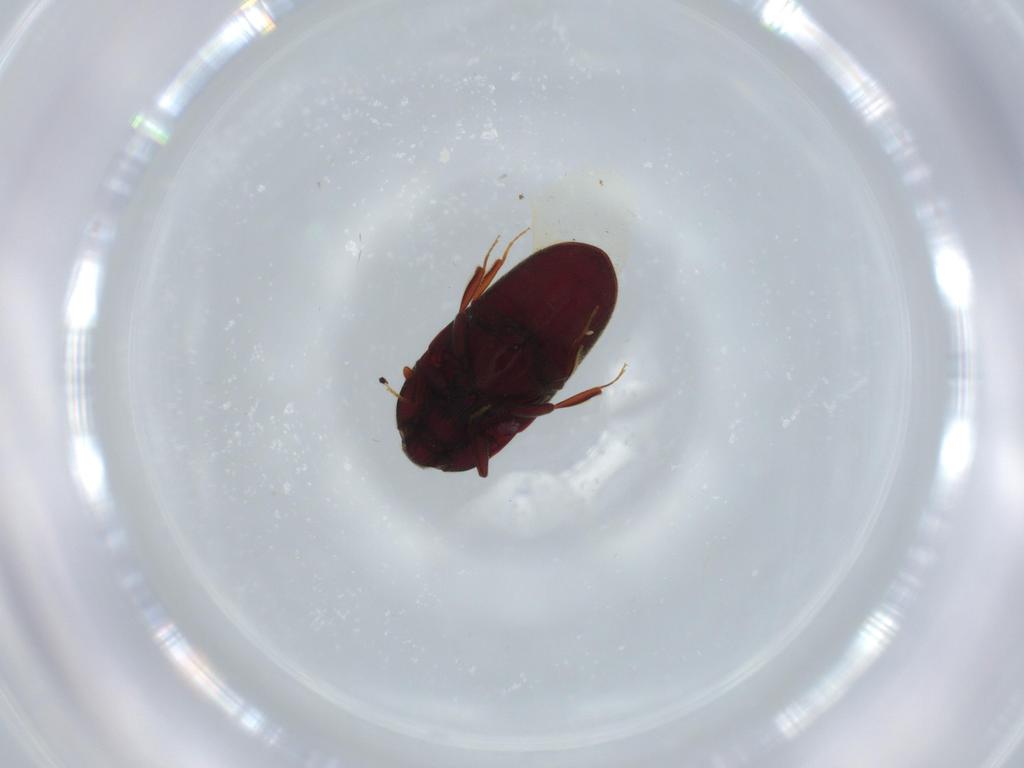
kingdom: Animalia
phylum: Arthropoda
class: Insecta
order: Coleoptera
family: Throscidae
